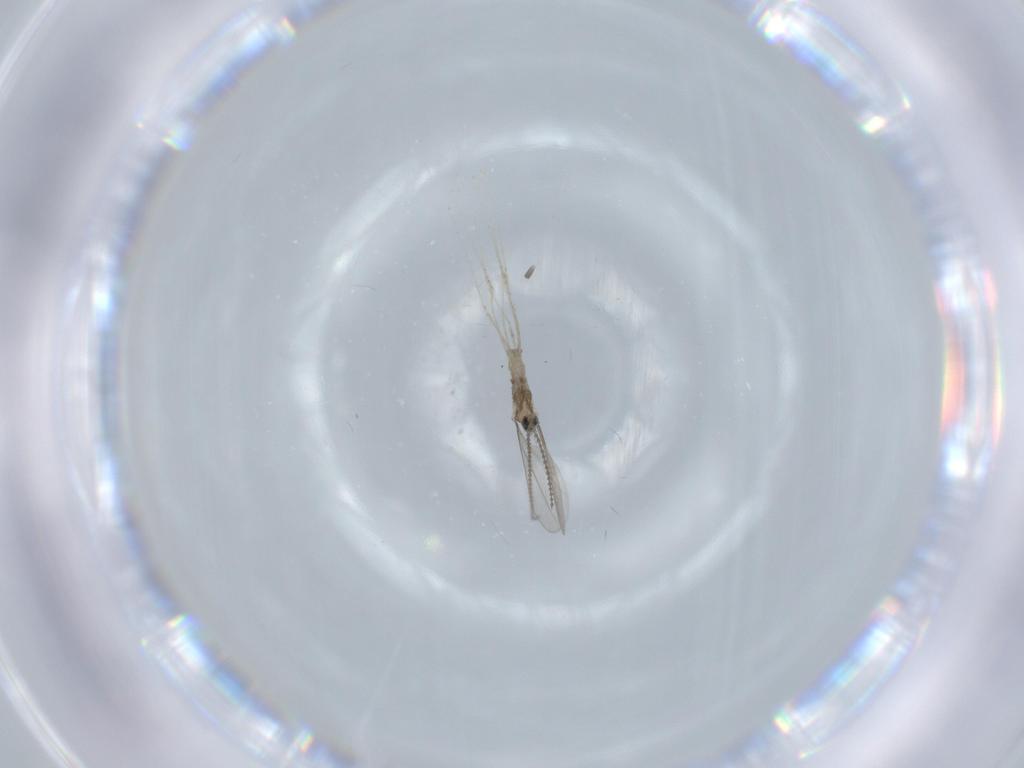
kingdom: Animalia
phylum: Arthropoda
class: Insecta
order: Diptera
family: Cecidomyiidae
